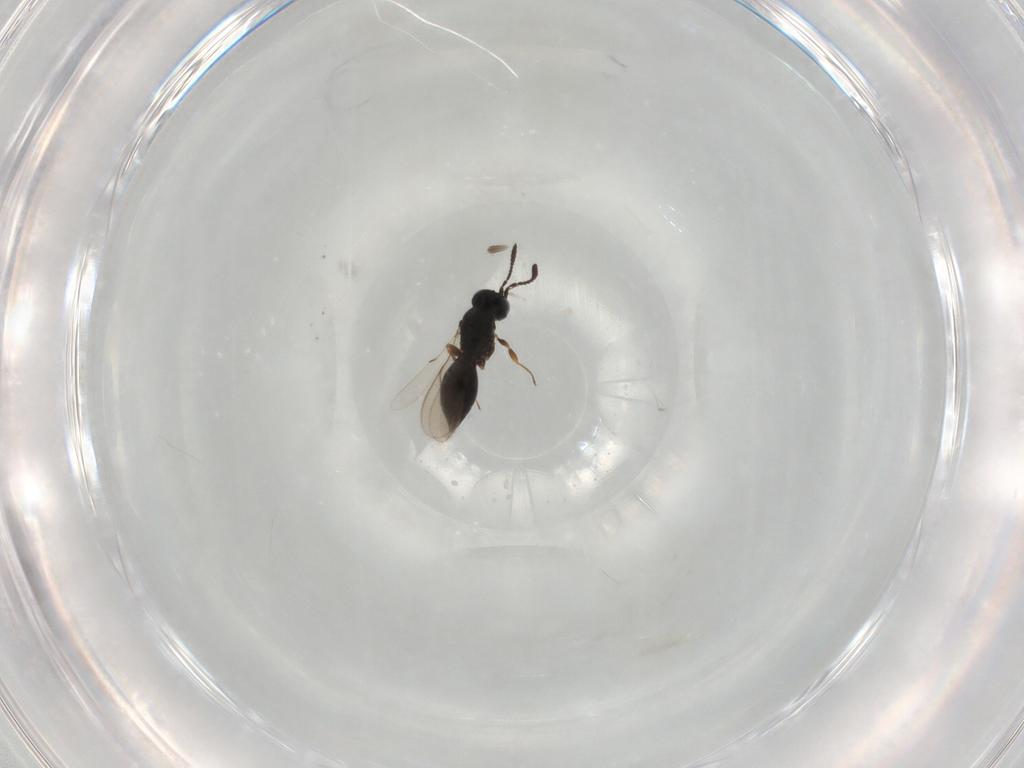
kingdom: Animalia
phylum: Arthropoda
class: Insecta
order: Hymenoptera
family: Scelionidae
